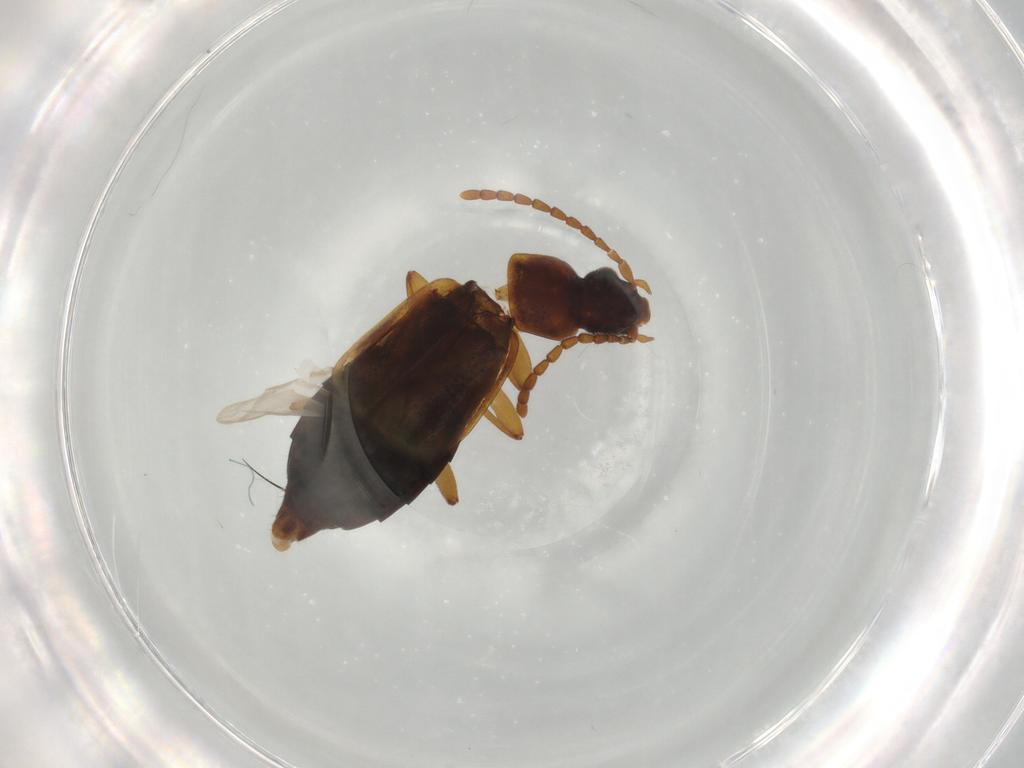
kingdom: Animalia
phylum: Arthropoda
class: Insecta
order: Coleoptera
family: Staphylinidae
